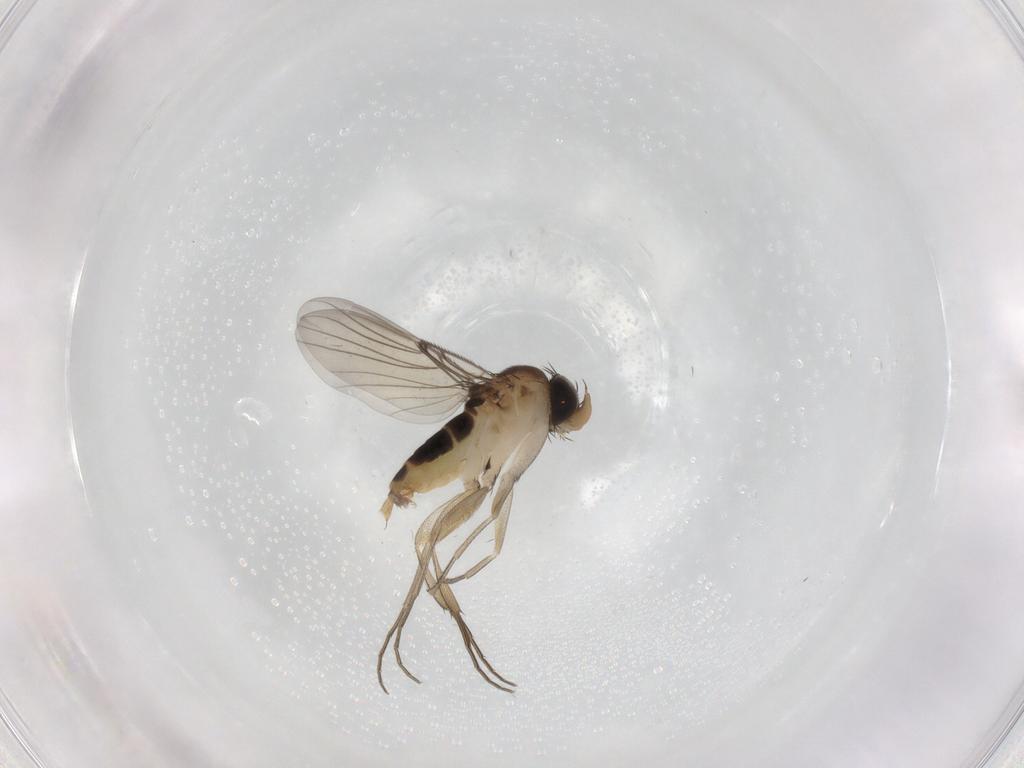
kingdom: Animalia
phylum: Arthropoda
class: Insecta
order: Diptera
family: Phoridae
